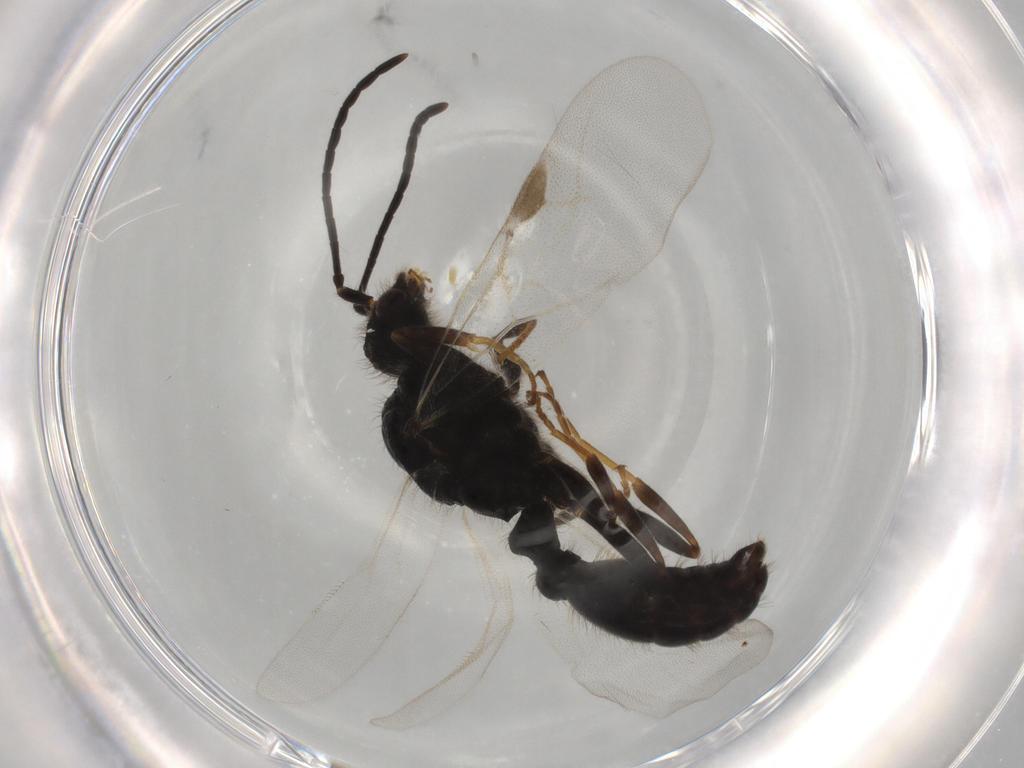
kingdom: Animalia
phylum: Arthropoda
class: Insecta
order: Hymenoptera
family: Formicidae
